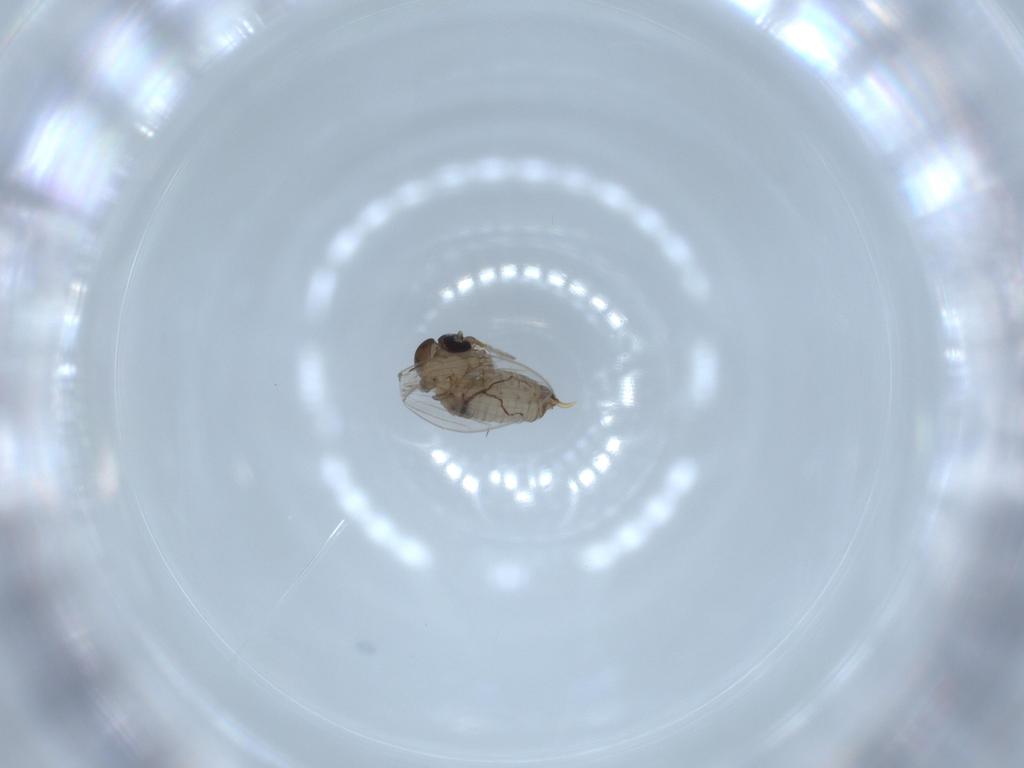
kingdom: Animalia
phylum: Arthropoda
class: Insecta
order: Diptera
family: Psychodidae
